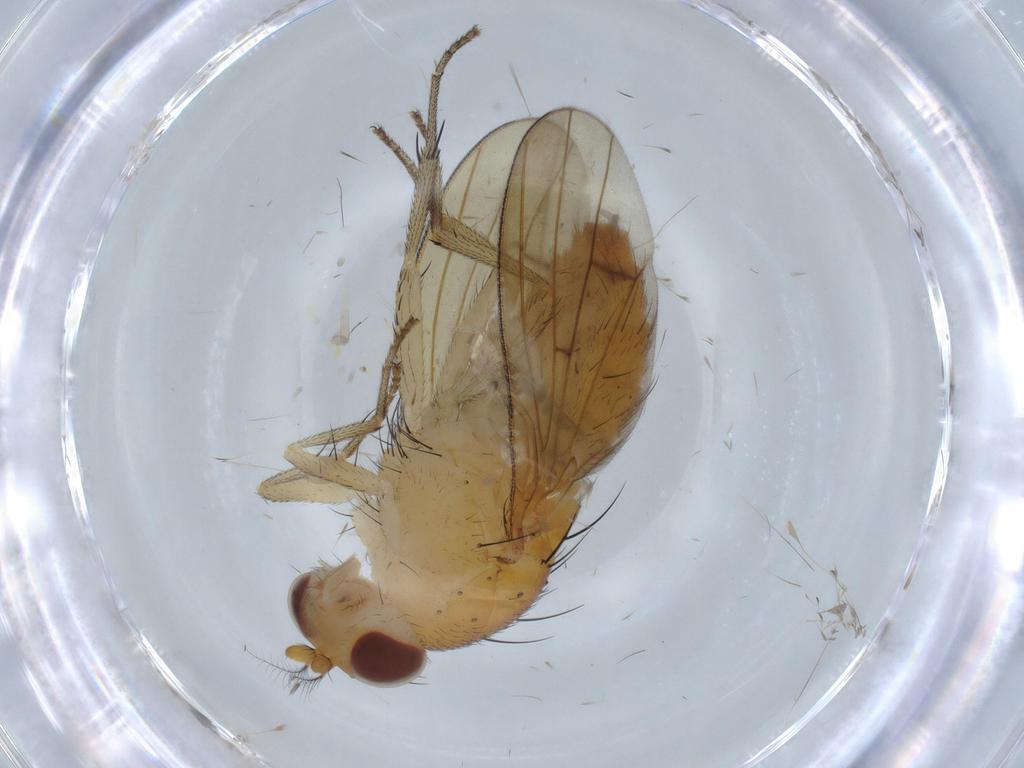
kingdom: Animalia
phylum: Arthropoda
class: Insecta
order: Diptera
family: Lauxaniidae
